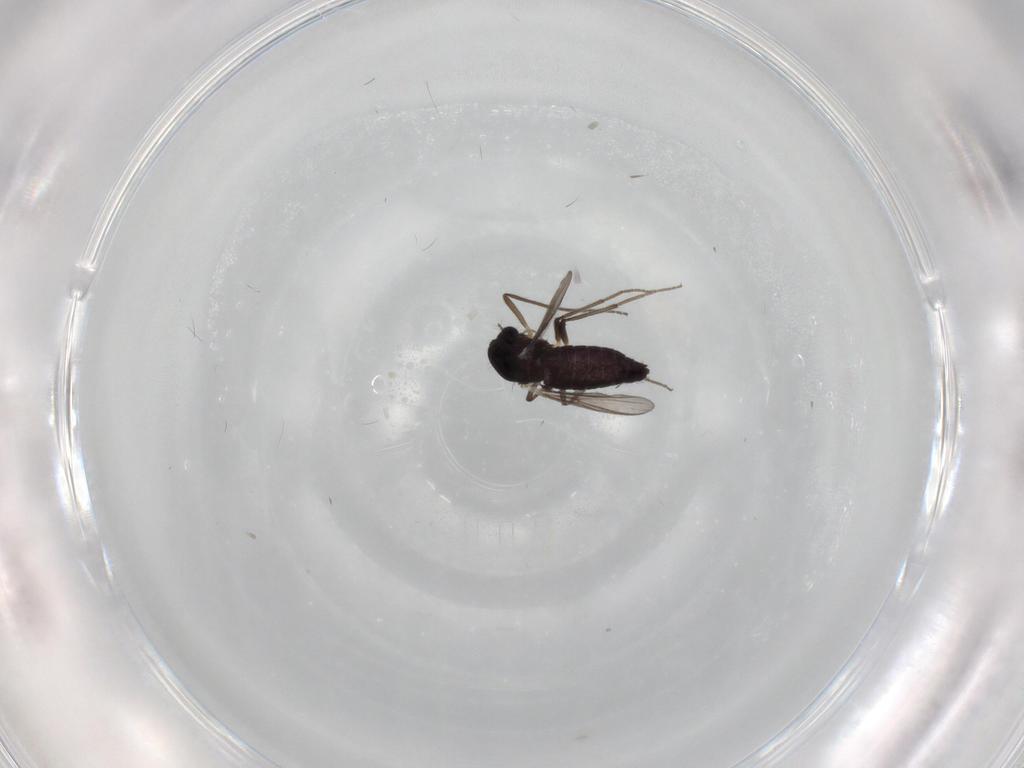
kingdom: Animalia
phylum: Arthropoda
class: Insecta
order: Diptera
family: Chironomidae
